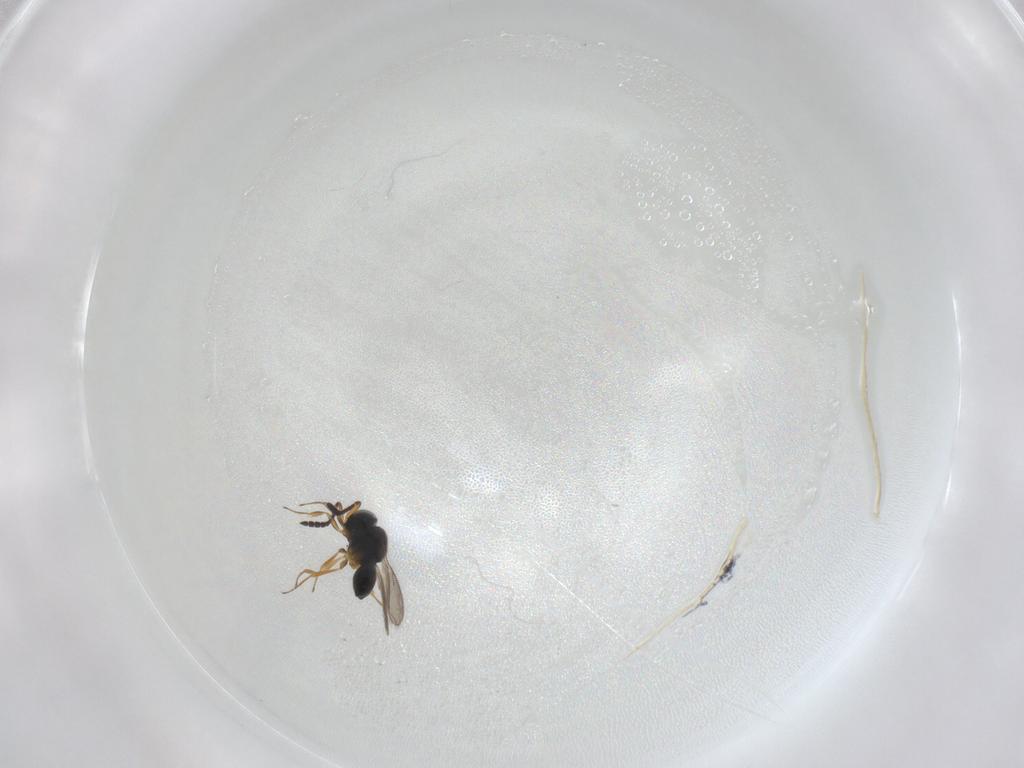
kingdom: Animalia
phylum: Arthropoda
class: Insecta
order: Hymenoptera
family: Scelionidae
